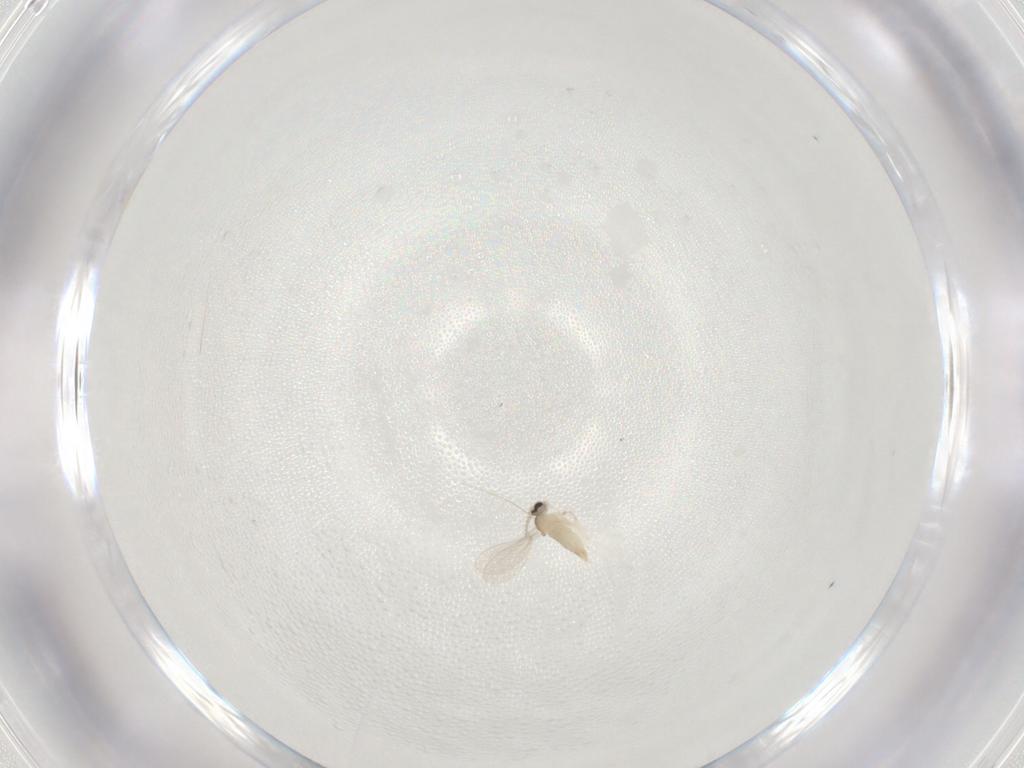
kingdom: Animalia
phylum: Arthropoda
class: Insecta
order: Diptera
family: Cecidomyiidae
